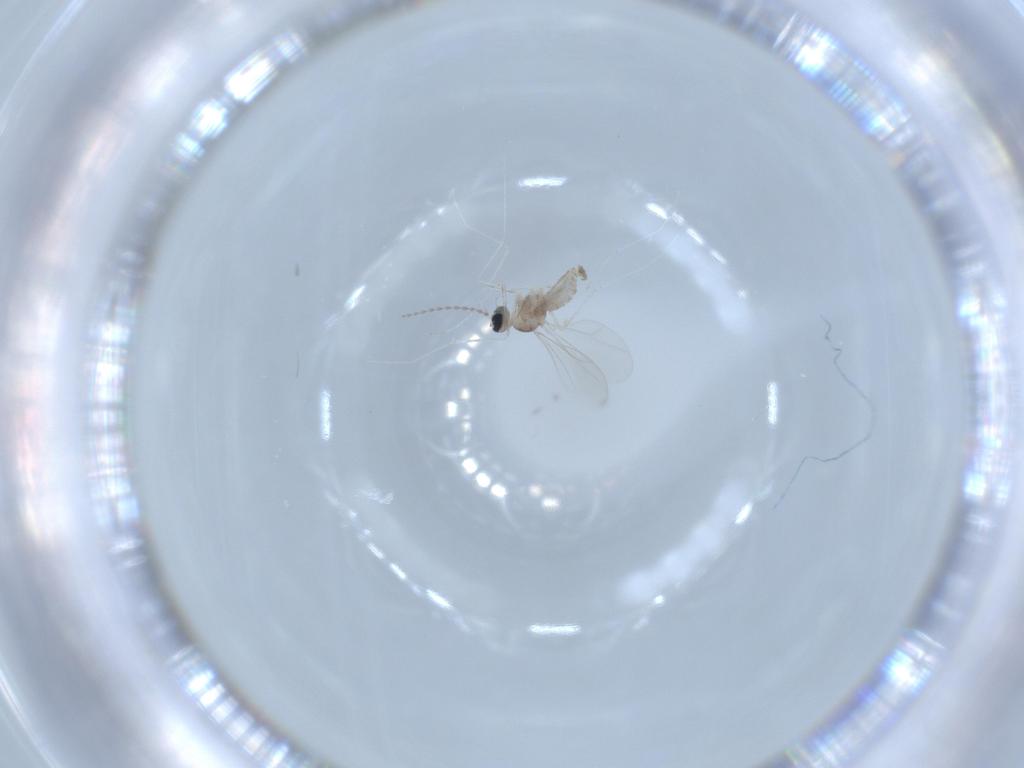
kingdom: Animalia
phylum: Arthropoda
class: Insecta
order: Diptera
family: Cecidomyiidae
